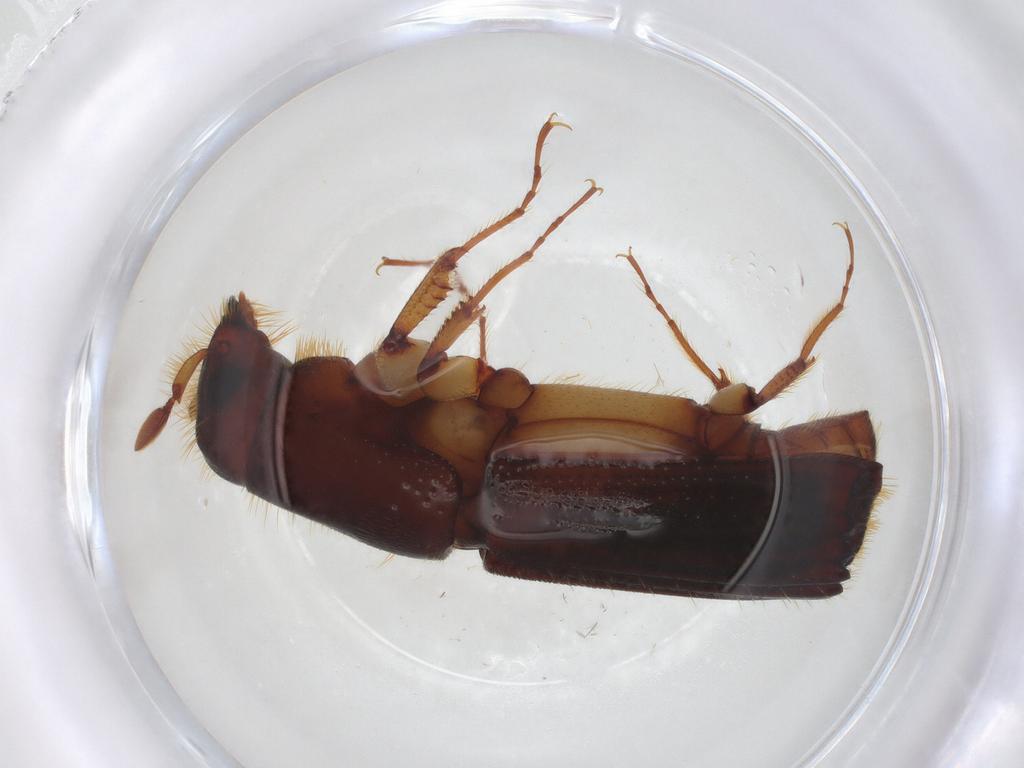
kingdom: Animalia
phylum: Arthropoda
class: Insecta
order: Coleoptera
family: Curculionidae
